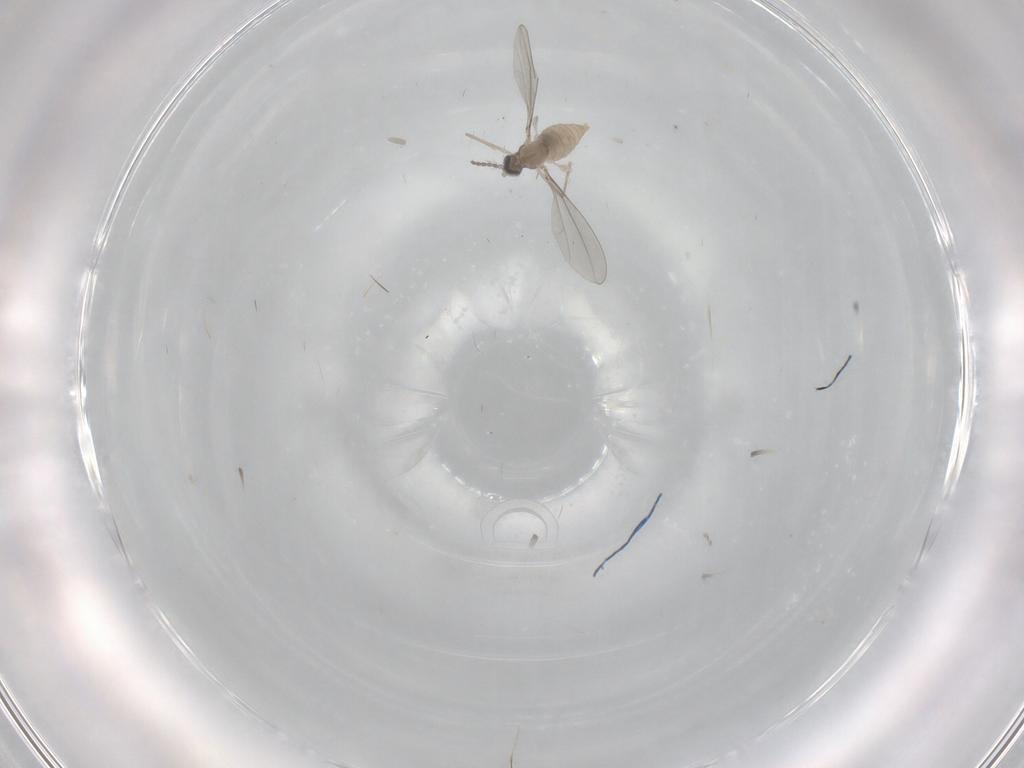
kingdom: Animalia
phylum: Arthropoda
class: Insecta
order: Diptera
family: Cecidomyiidae
